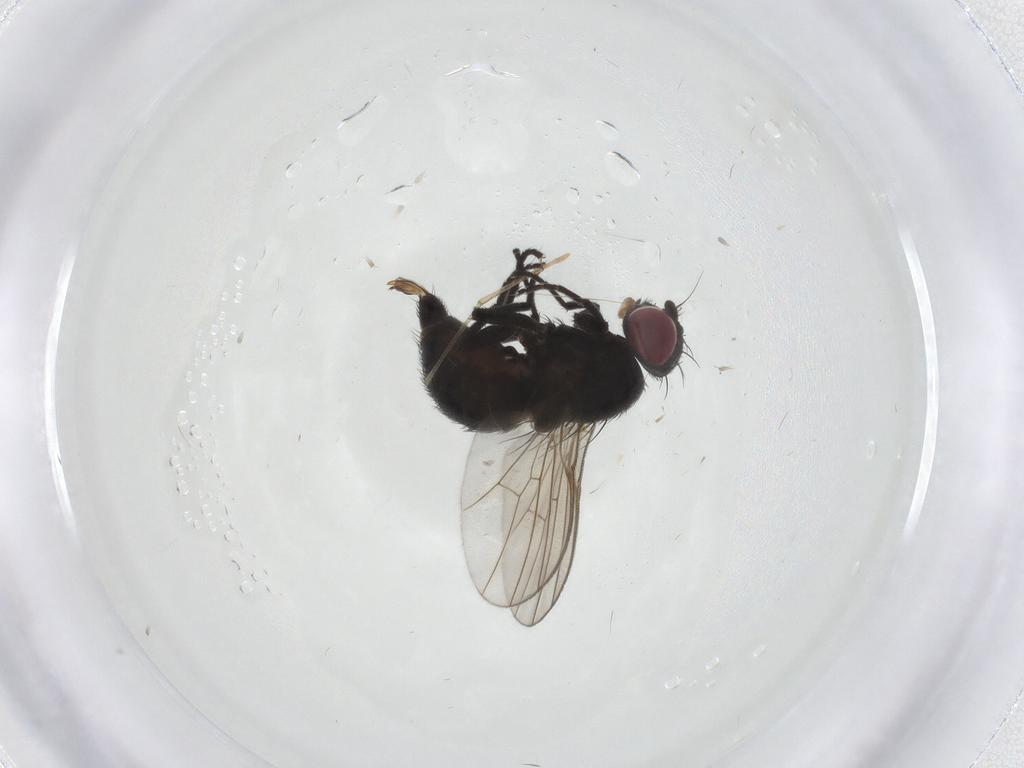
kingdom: Animalia
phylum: Arthropoda
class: Insecta
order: Diptera
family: Agromyzidae
